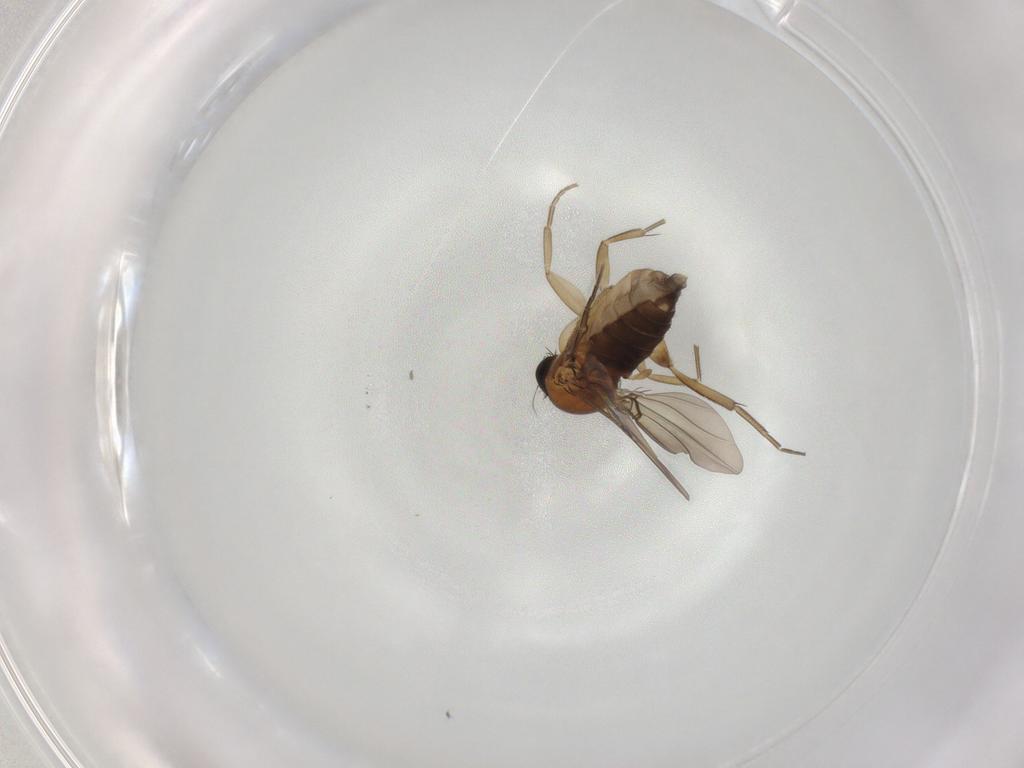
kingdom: Animalia
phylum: Arthropoda
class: Insecta
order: Diptera
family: Phoridae
